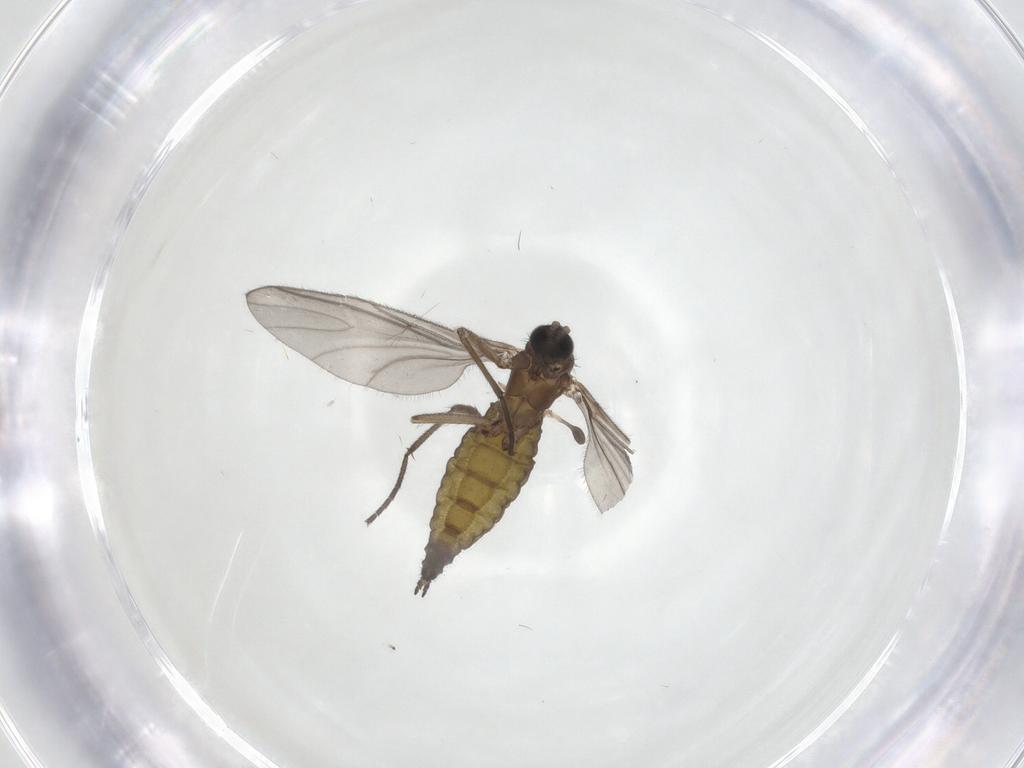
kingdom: Animalia
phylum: Arthropoda
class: Insecta
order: Diptera
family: Sciaridae
